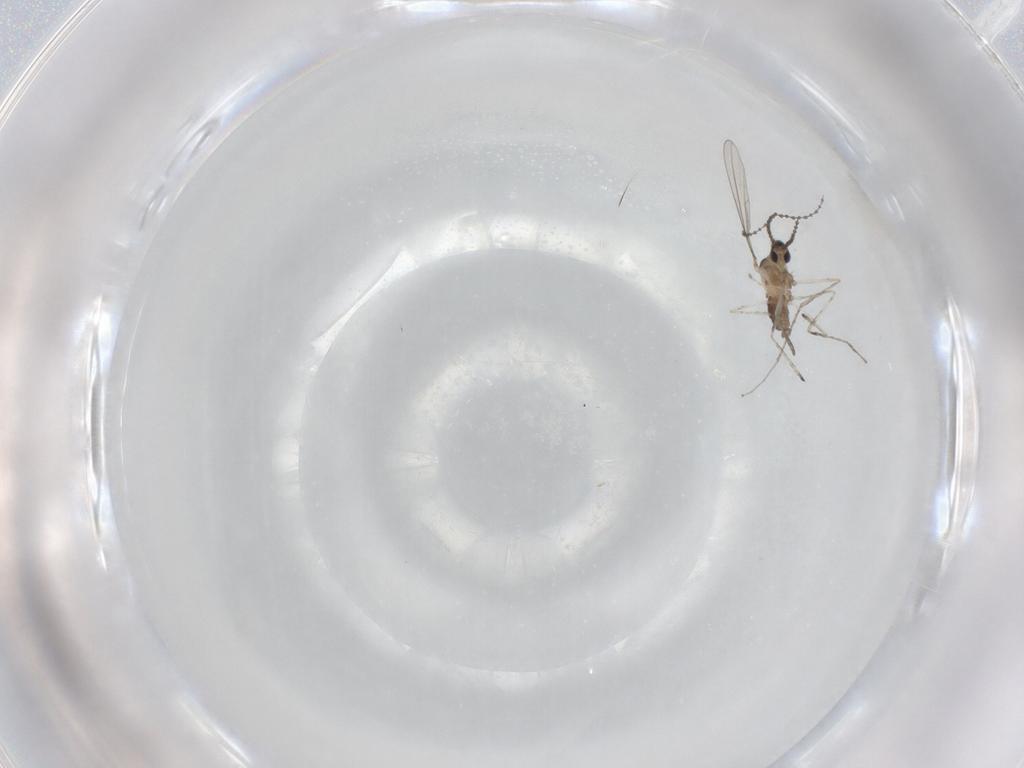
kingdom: Animalia
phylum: Arthropoda
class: Insecta
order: Diptera
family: Cecidomyiidae
